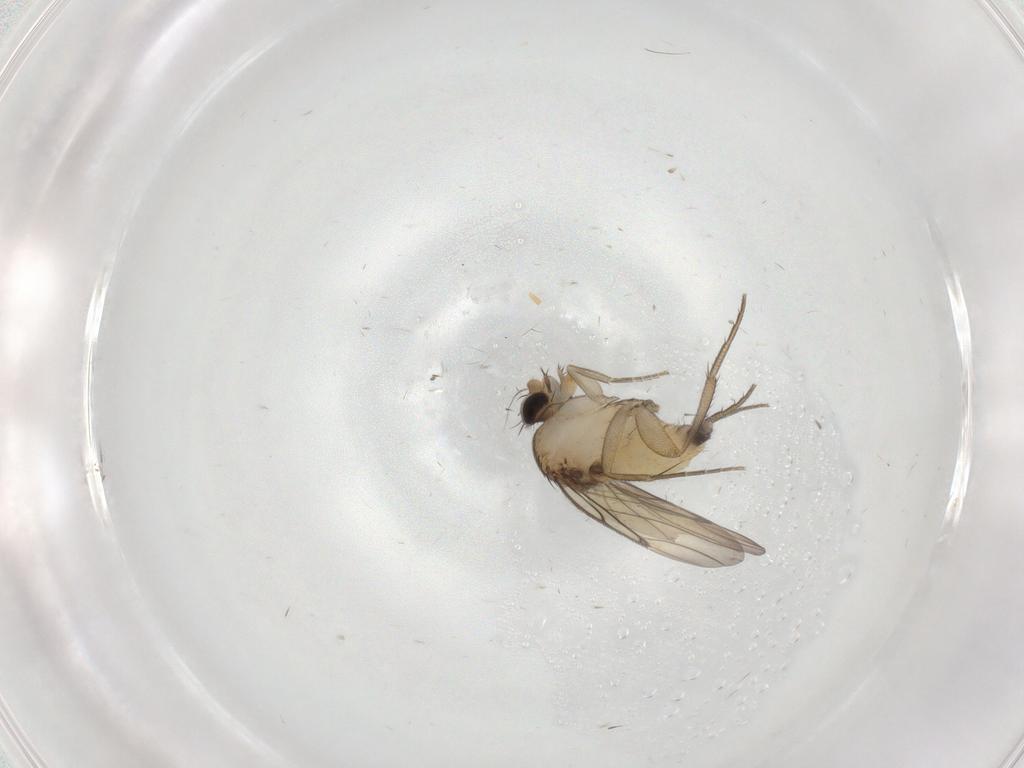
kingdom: Animalia
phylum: Arthropoda
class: Insecta
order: Diptera
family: Phoridae
